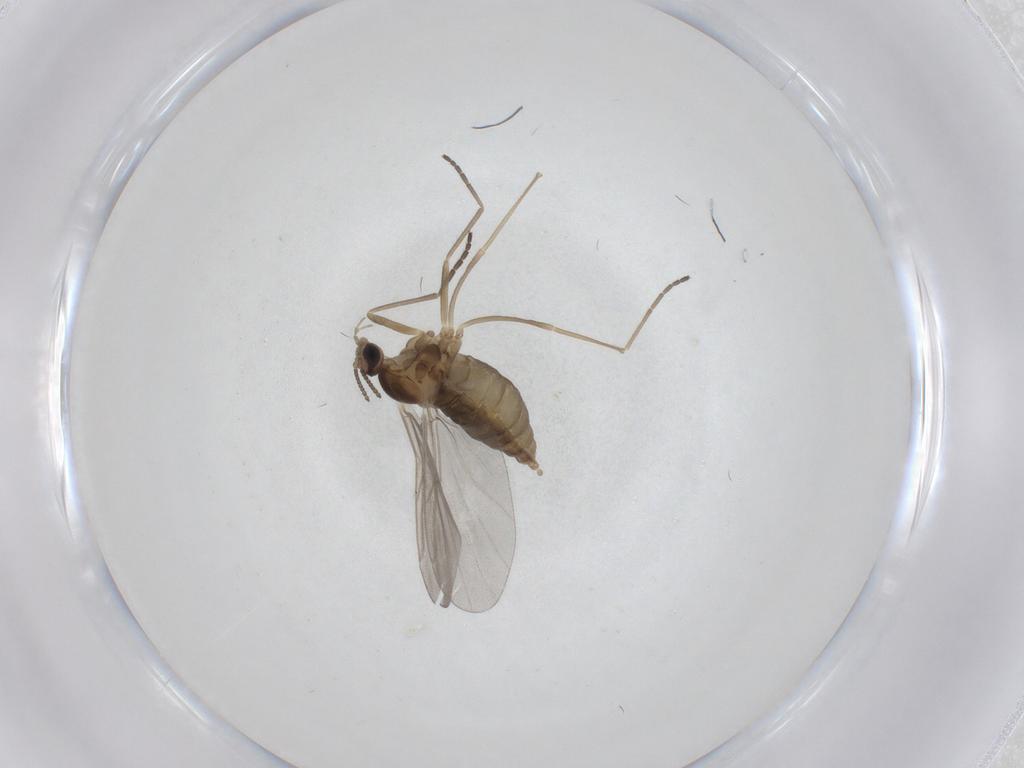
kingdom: Animalia
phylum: Arthropoda
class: Insecta
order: Diptera
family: Cecidomyiidae
